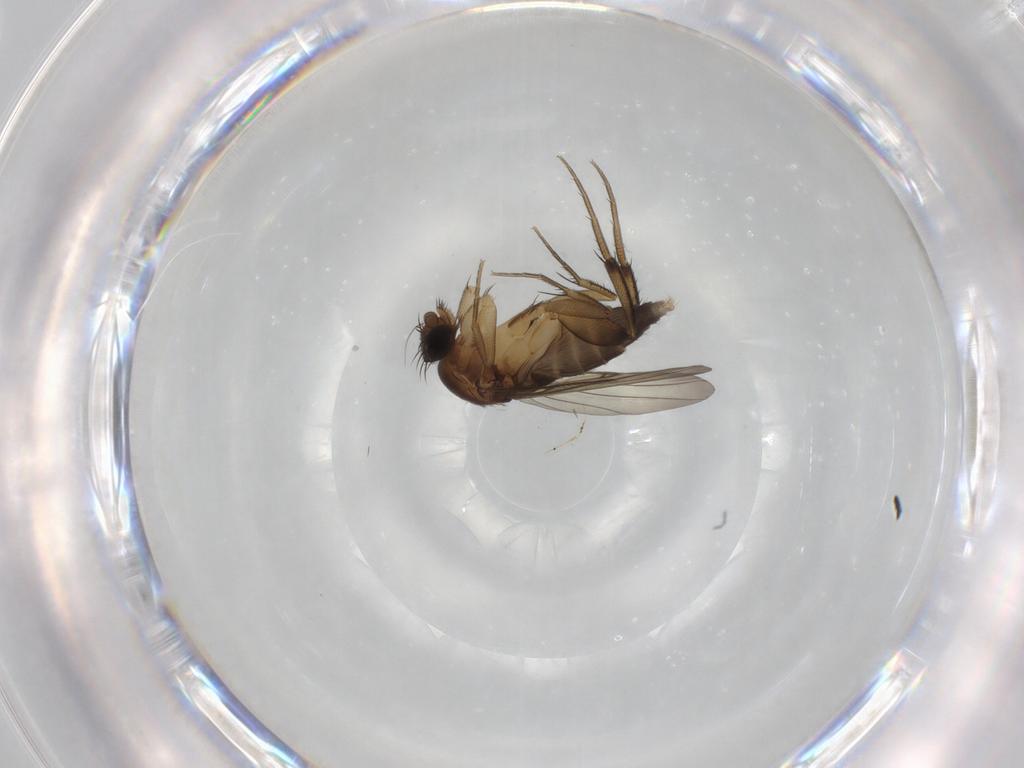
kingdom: Animalia
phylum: Arthropoda
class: Insecta
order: Diptera
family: Phoridae
